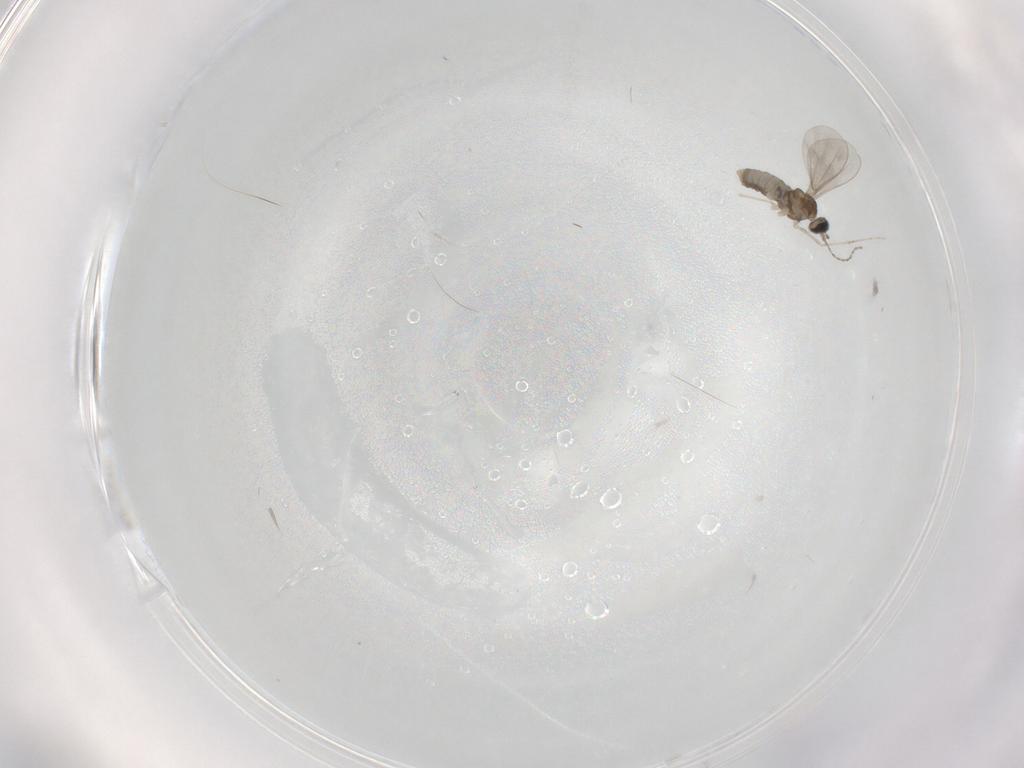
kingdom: Animalia
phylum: Arthropoda
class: Insecta
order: Diptera
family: Cecidomyiidae
